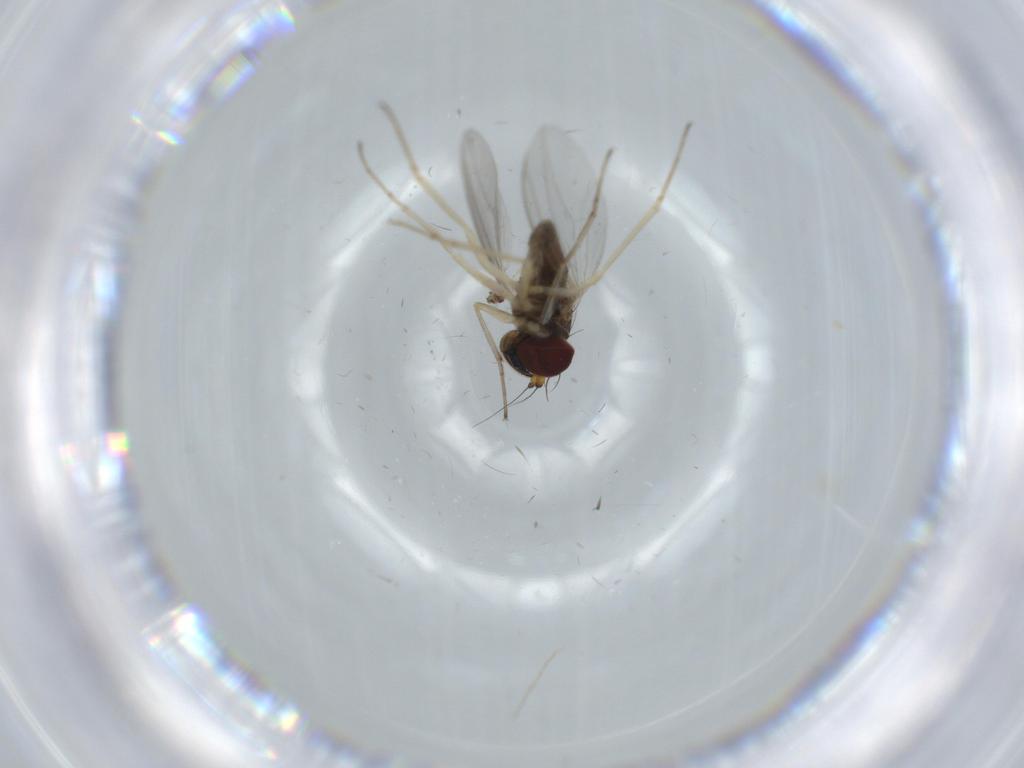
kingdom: Animalia
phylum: Arthropoda
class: Insecta
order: Diptera
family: Dolichopodidae
